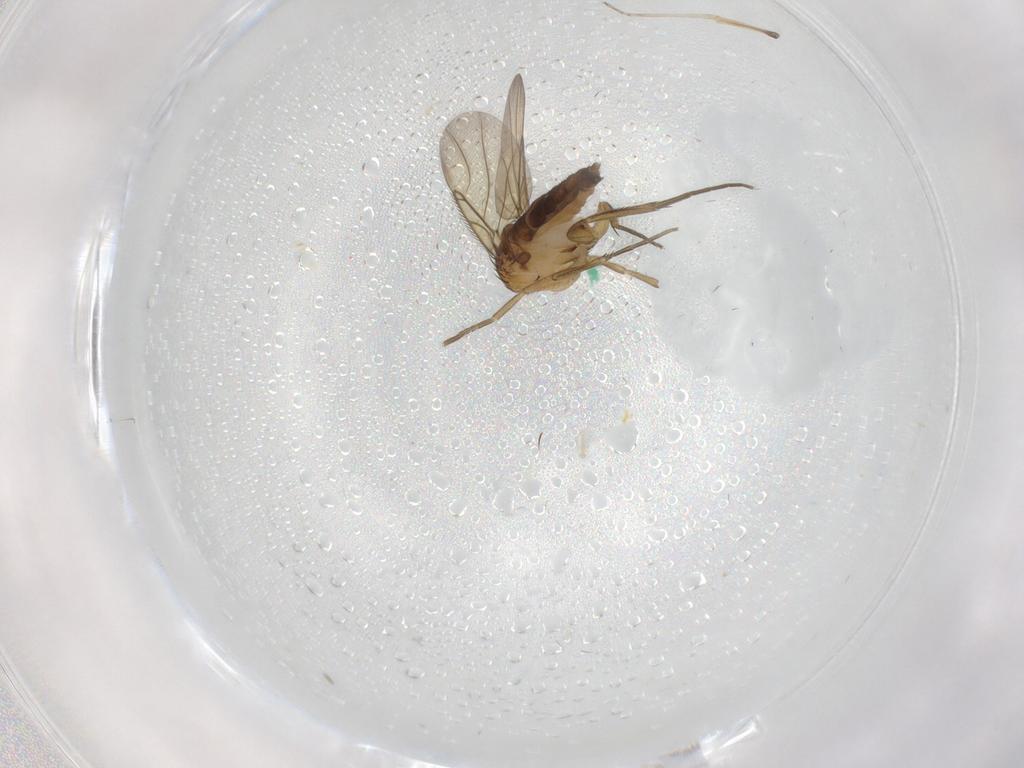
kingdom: Animalia
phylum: Arthropoda
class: Insecta
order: Diptera
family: Phoridae
